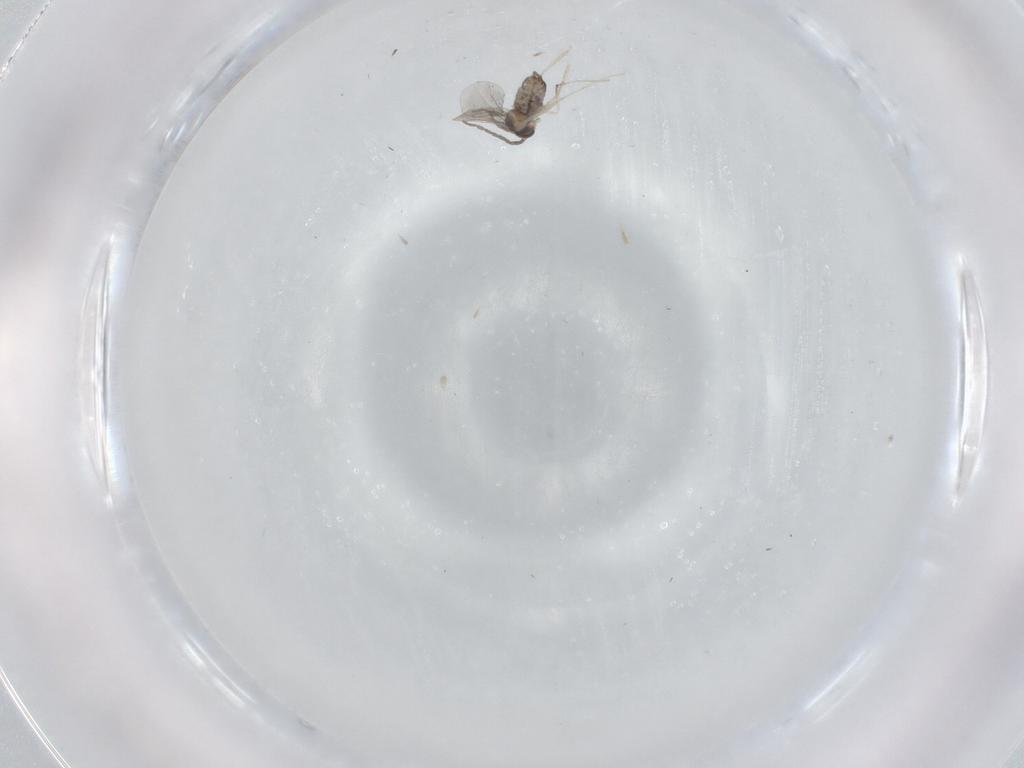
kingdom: Animalia
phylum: Arthropoda
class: Insecta
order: Diptera
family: Cecidomyiidae
